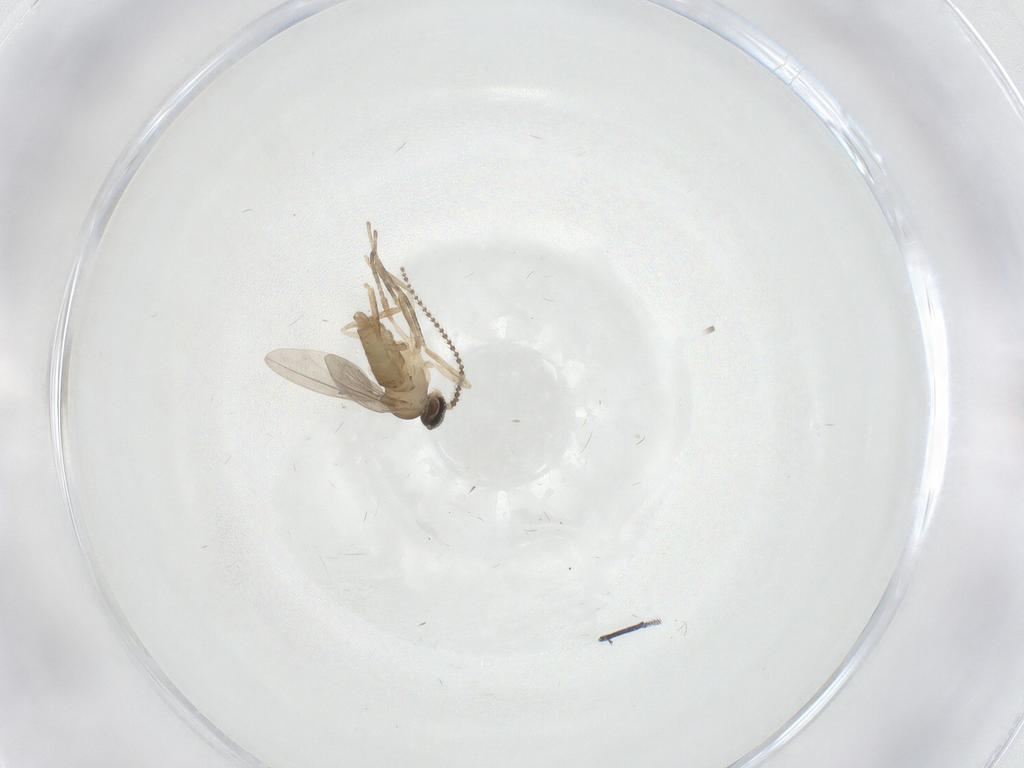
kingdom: Animalia
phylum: Arthropoda
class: Insecta
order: Diptera
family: Cecidomyiidae
